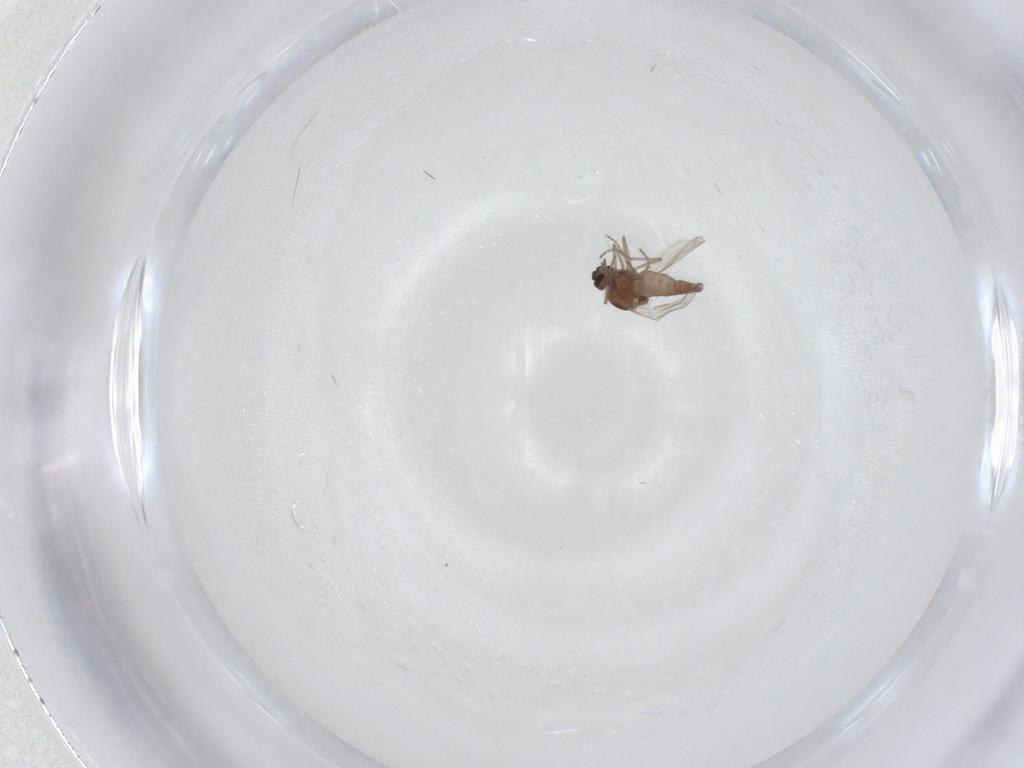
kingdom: Animalia
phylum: Arthropoda
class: Insecta
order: Diptera
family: Ceratopogonidae
